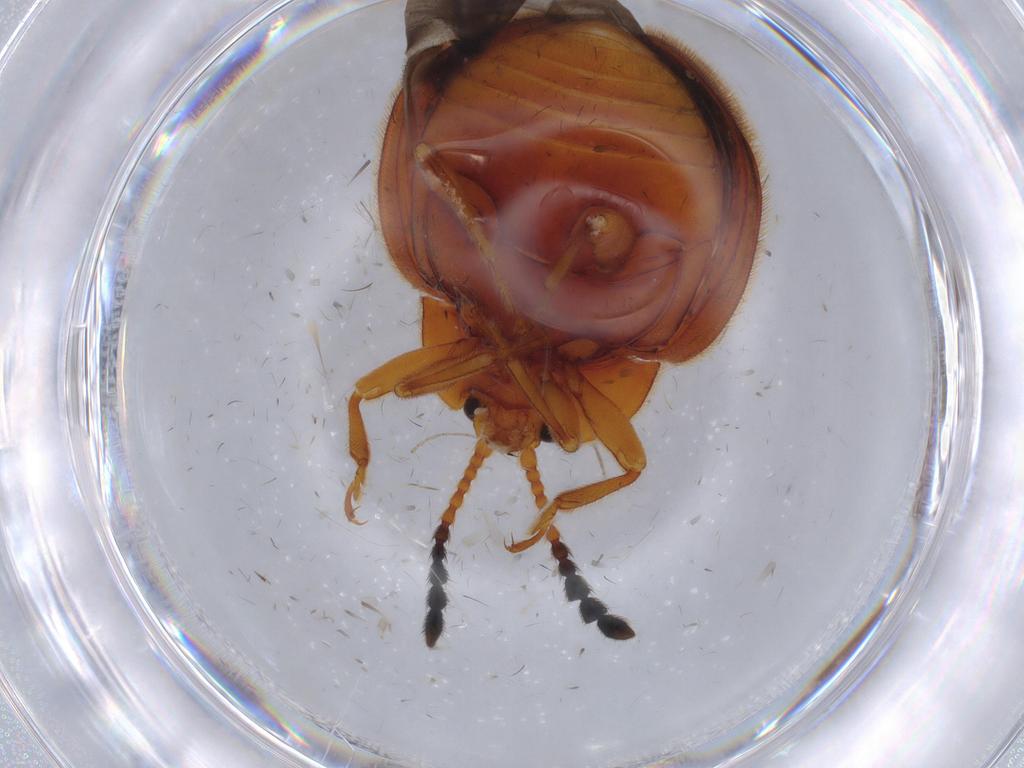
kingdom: Animalia
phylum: Arthropoda
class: Insecta
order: Coleoptera
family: Endomychidae
